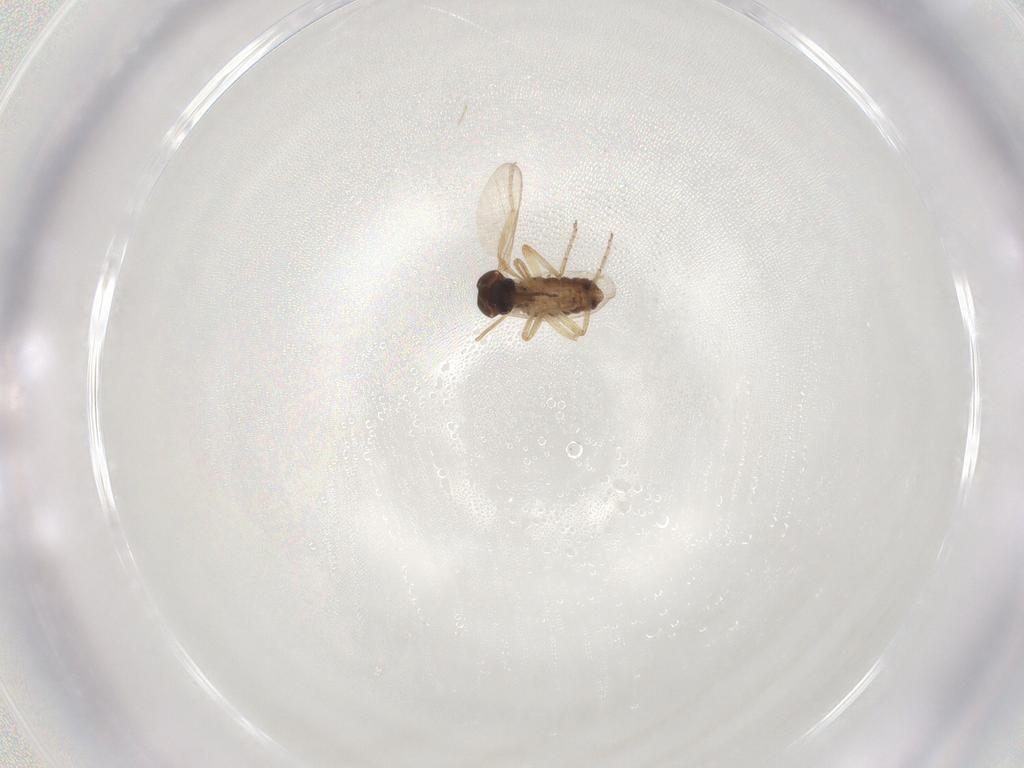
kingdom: Animalia
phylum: Arthropoda
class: Insecta
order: Diptera
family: Ceratopogonidae
